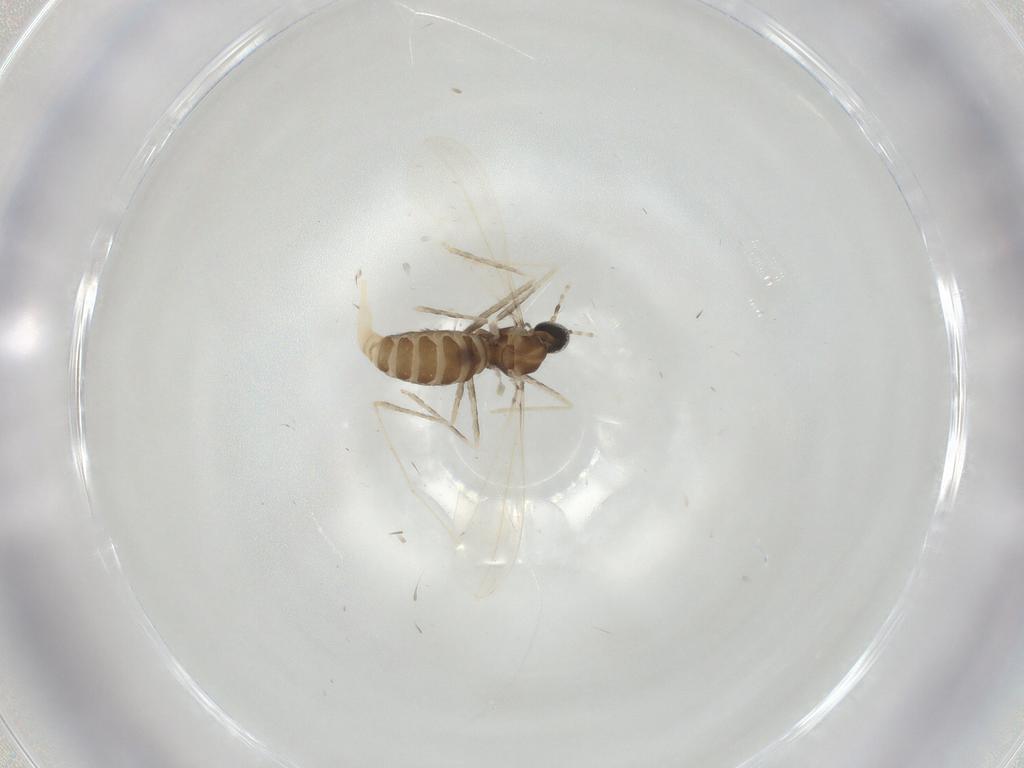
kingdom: Animalia
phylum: Arthropoda
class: Insecta
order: Diptera
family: Cecidomyiidae
